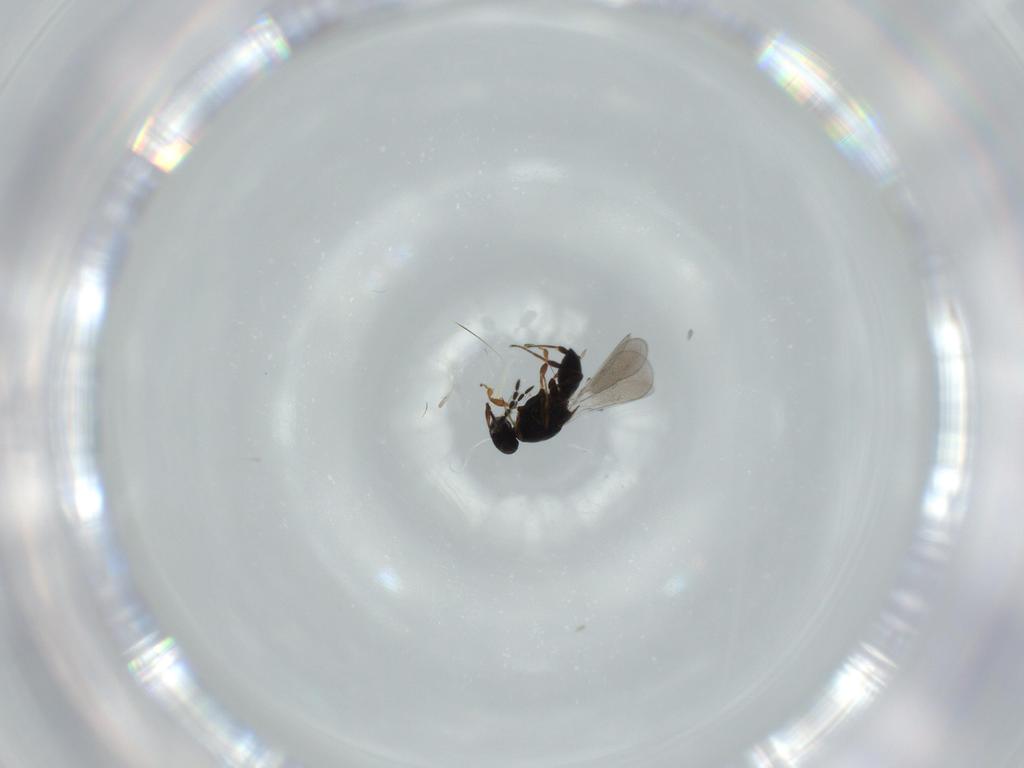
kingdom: Animalia
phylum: Arthropoda
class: Insecta
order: Hymenoptera
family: Platygastridae
